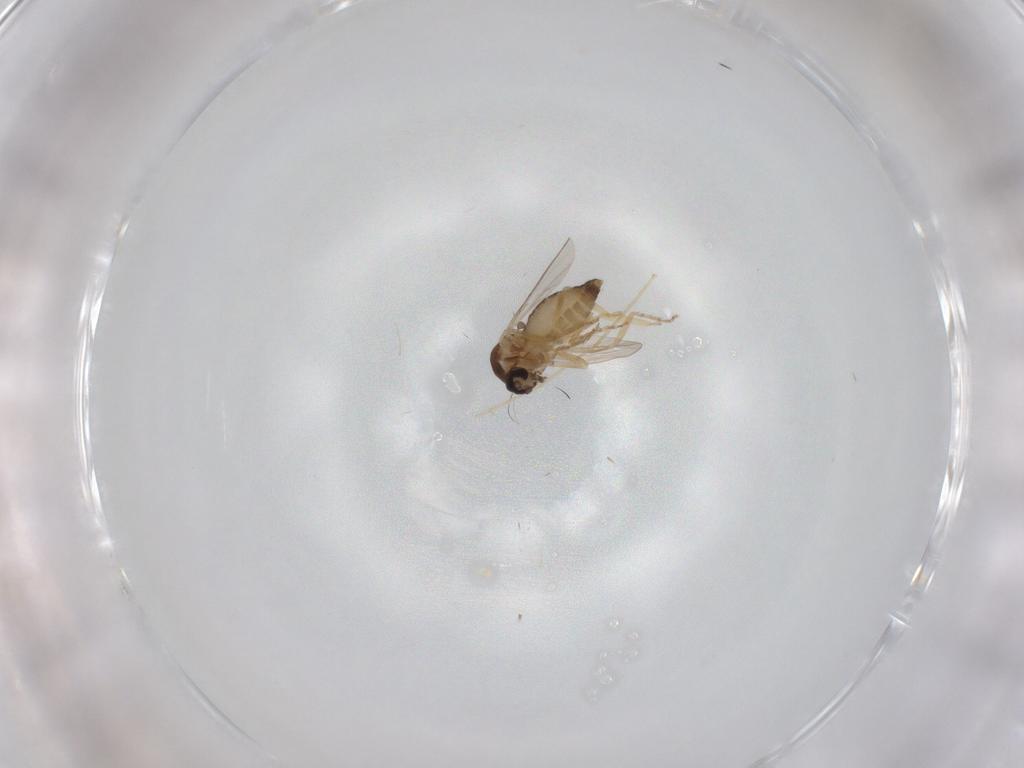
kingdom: Animalia
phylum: Arthropoda
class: Insecta
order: Diptera
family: Ceratopogonidae
